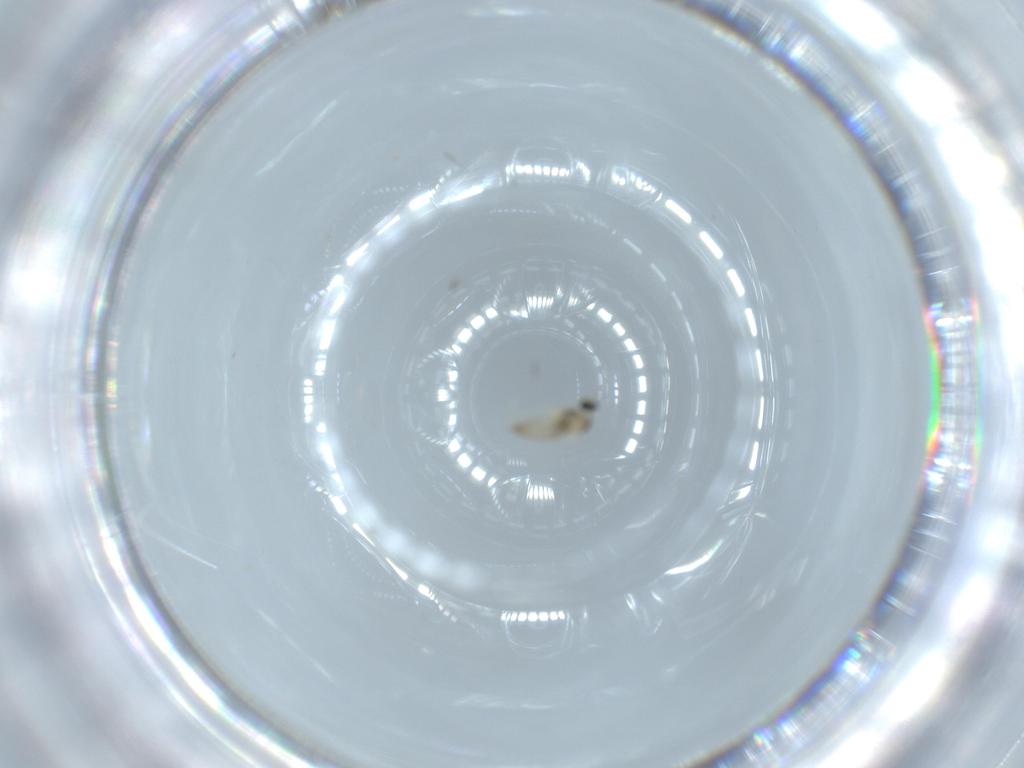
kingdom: Animalia
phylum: Arthropoda
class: Insecta
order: Diptera
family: Cecidomyiidae
